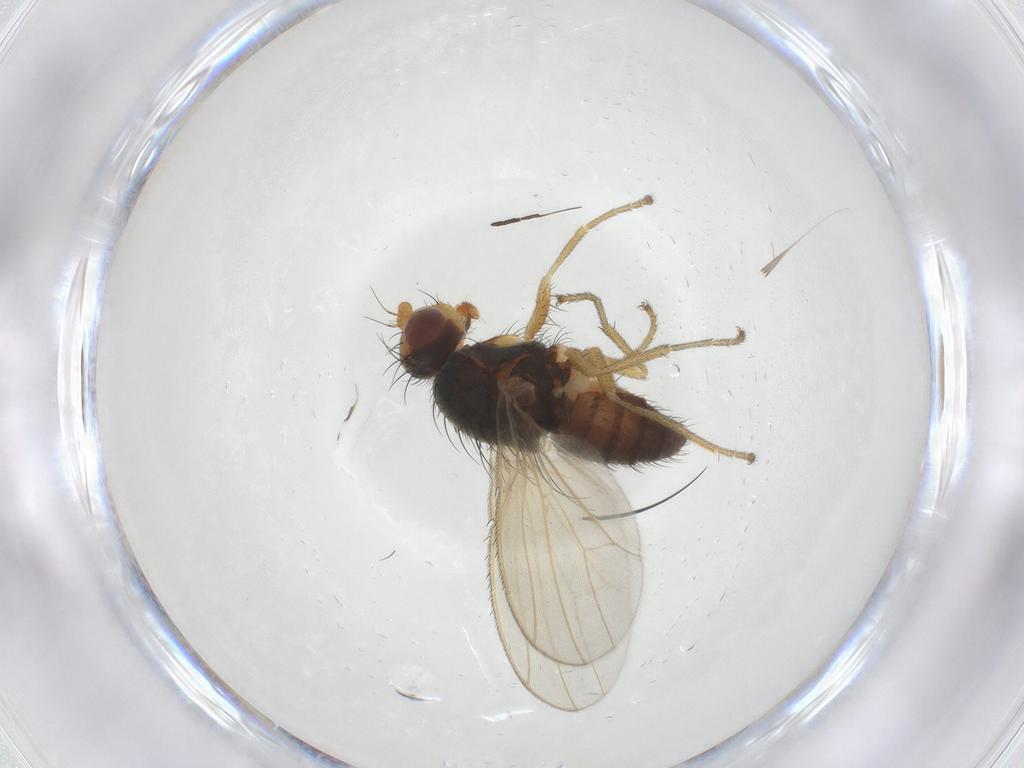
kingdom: Animalia
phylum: Arthropoda
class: Insecta
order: Diptera
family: Heleomyzidae
